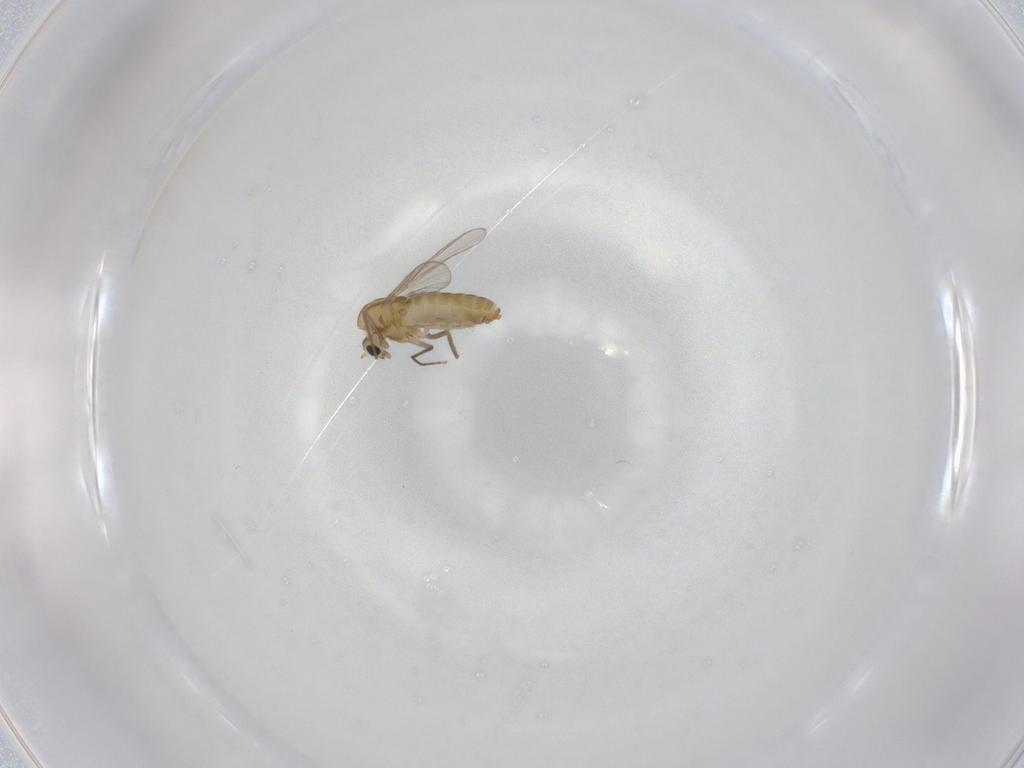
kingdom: Animalia
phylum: Arthropoda
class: Insecta
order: Diptera
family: Chironomidae
